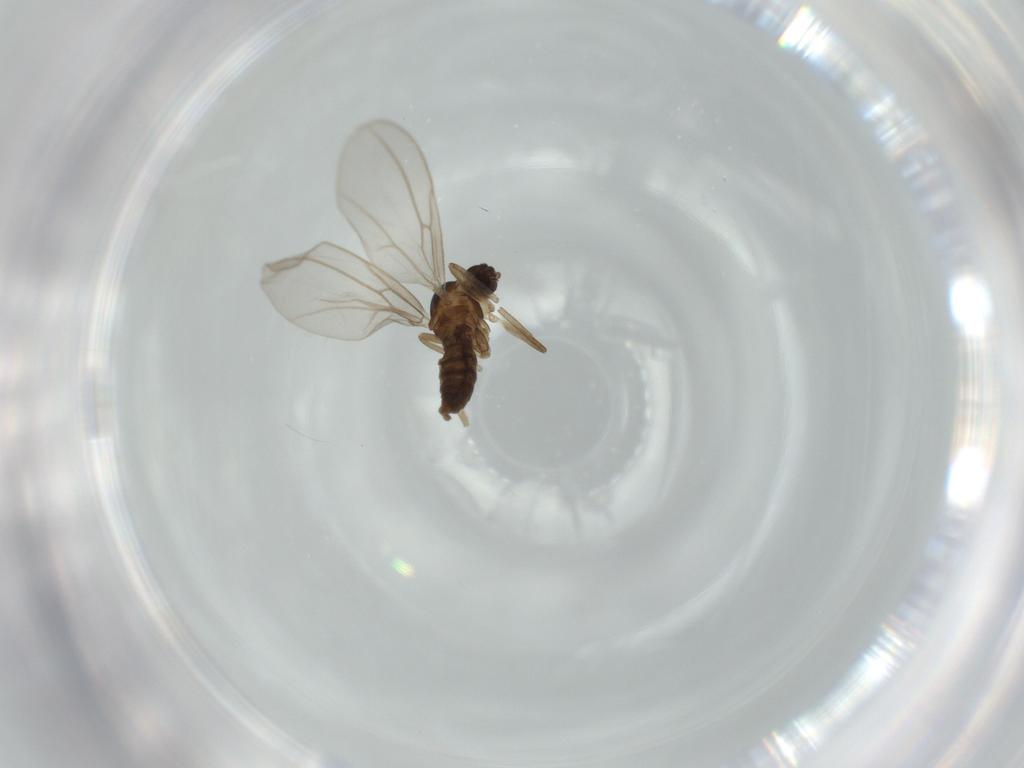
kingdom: Animalia
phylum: Arthropoda
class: Insecta
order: Diptera
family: Cecidomyiidae
